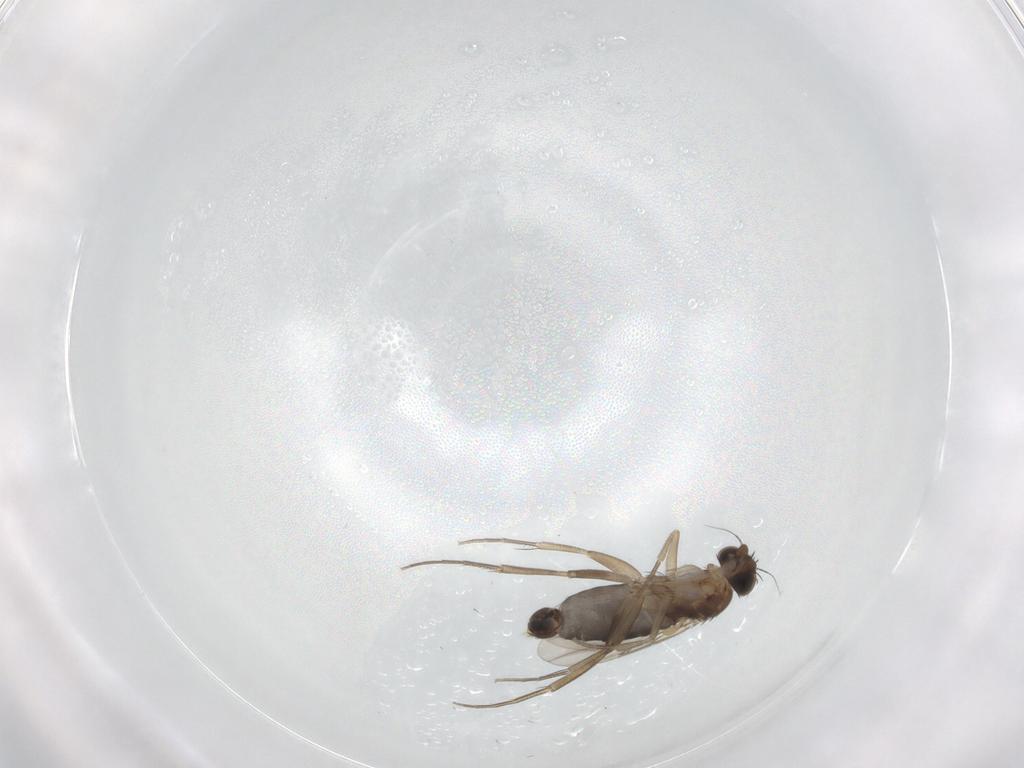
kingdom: Animalia
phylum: Arthropoda
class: Insecta
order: Diptera
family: Phoridae
